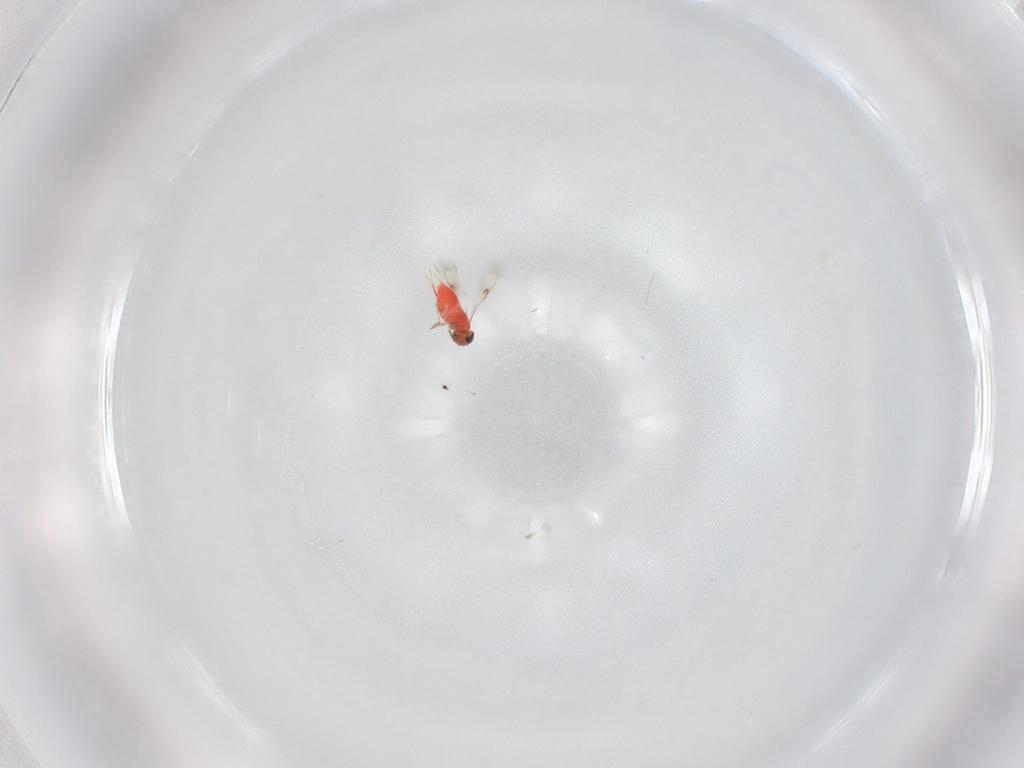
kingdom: Animalia
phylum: Arthropoda
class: Insecta
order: Hymenoptera
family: Trichogrammatidae
